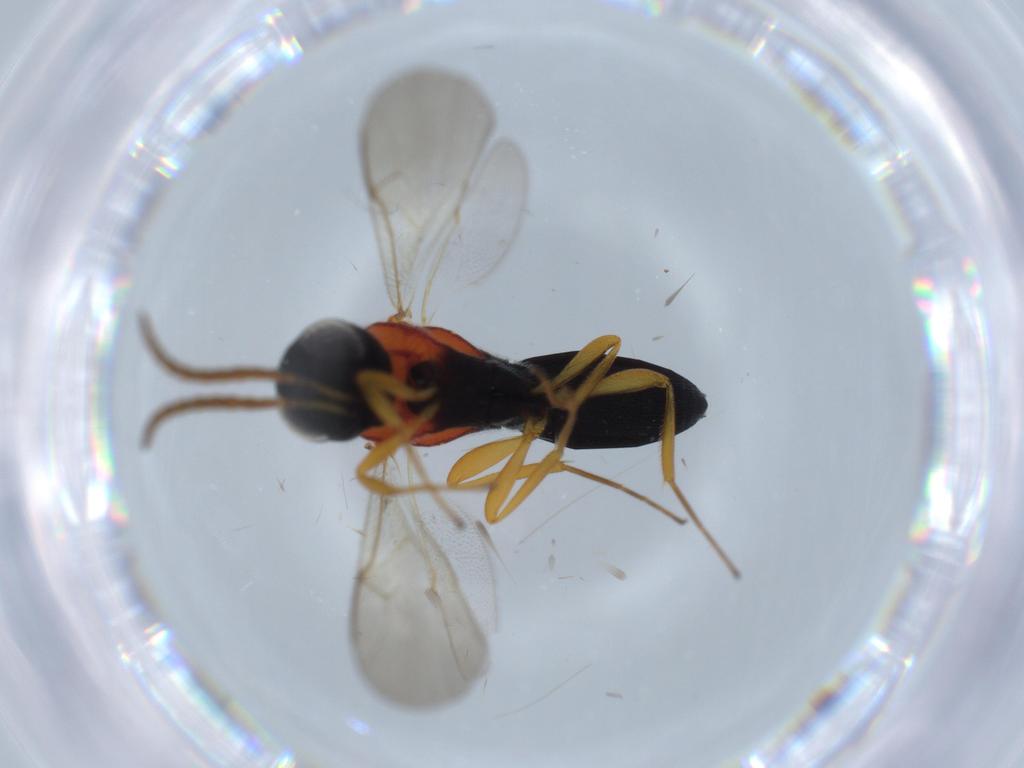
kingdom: Animalia
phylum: Arthropoda
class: Insecta
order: Hymenoptera
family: Scelionidae
